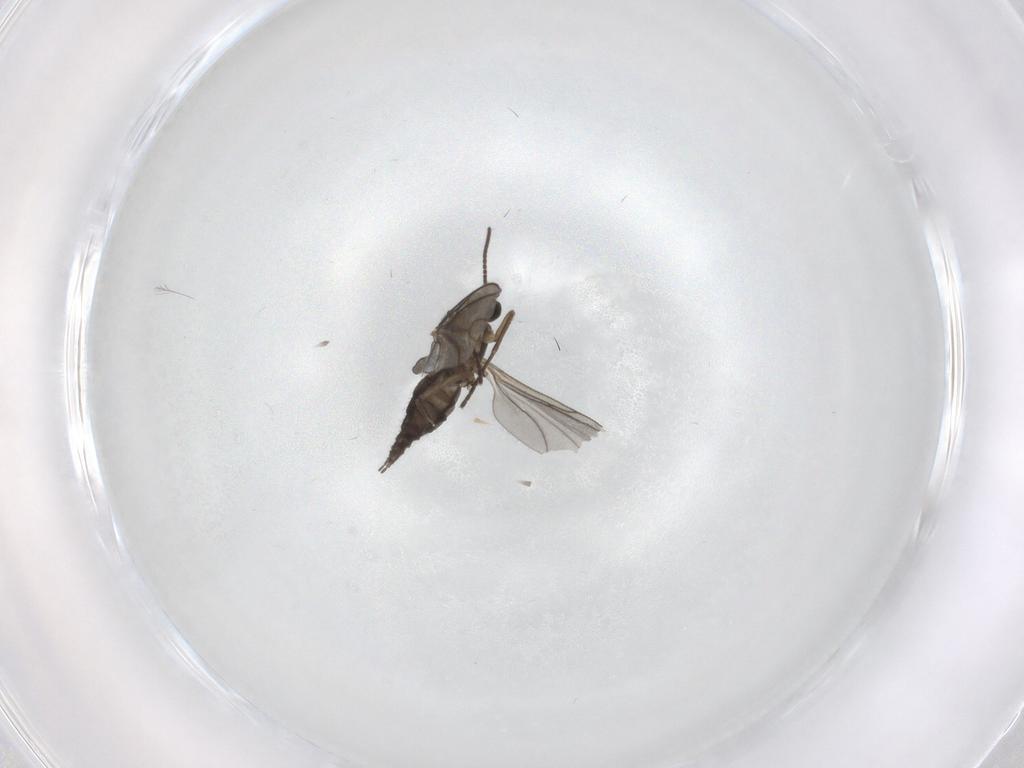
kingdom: Animalia
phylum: Arthropoda
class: Insecta
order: Diptera
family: Sciaridae
